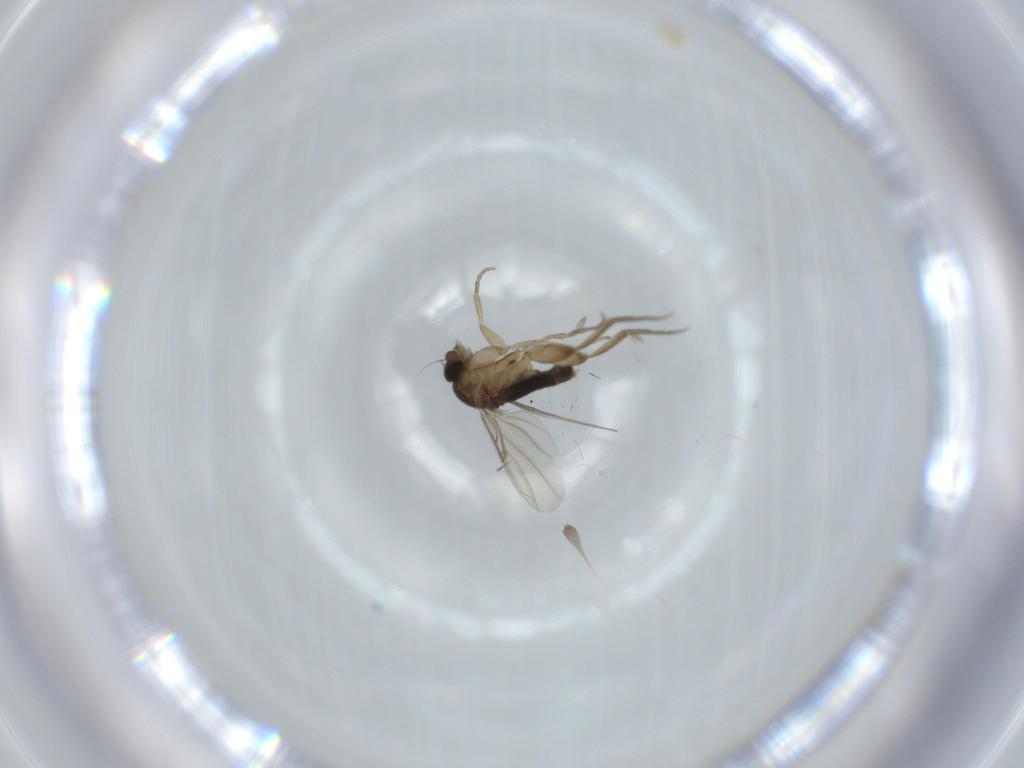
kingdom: Animalia
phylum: Arthropoda
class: Insecta
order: Diptera
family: Phoridae
